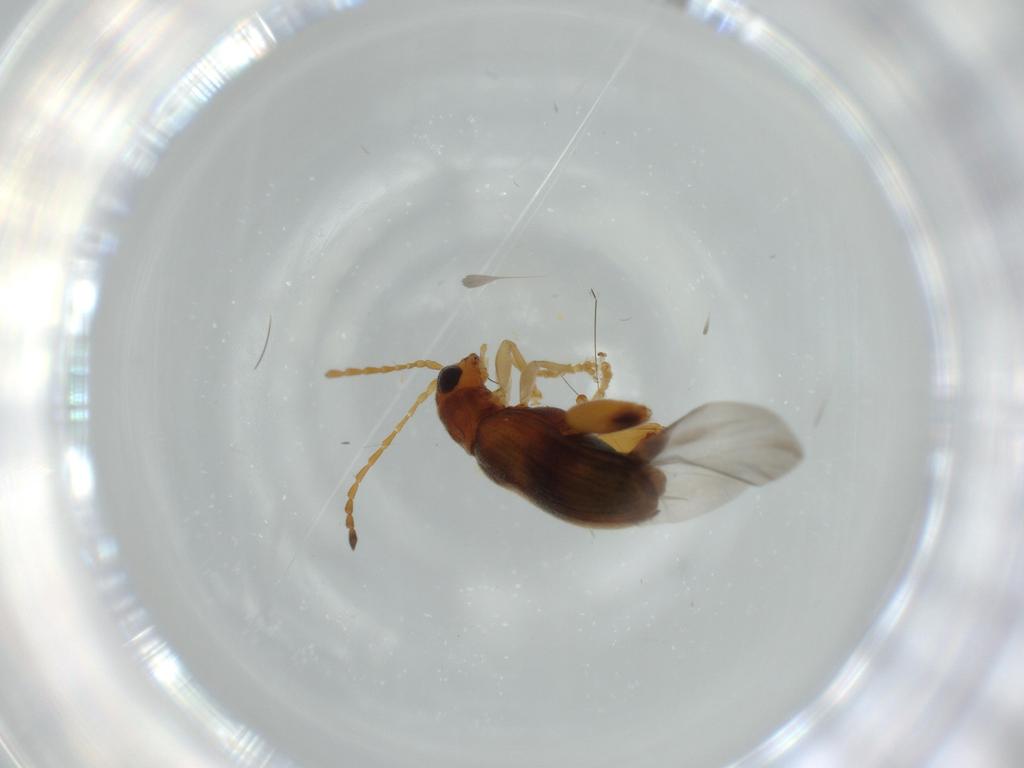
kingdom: Animalia
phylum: Arthropoda
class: Insecta
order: Coleoptera
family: Chrysomelidae
